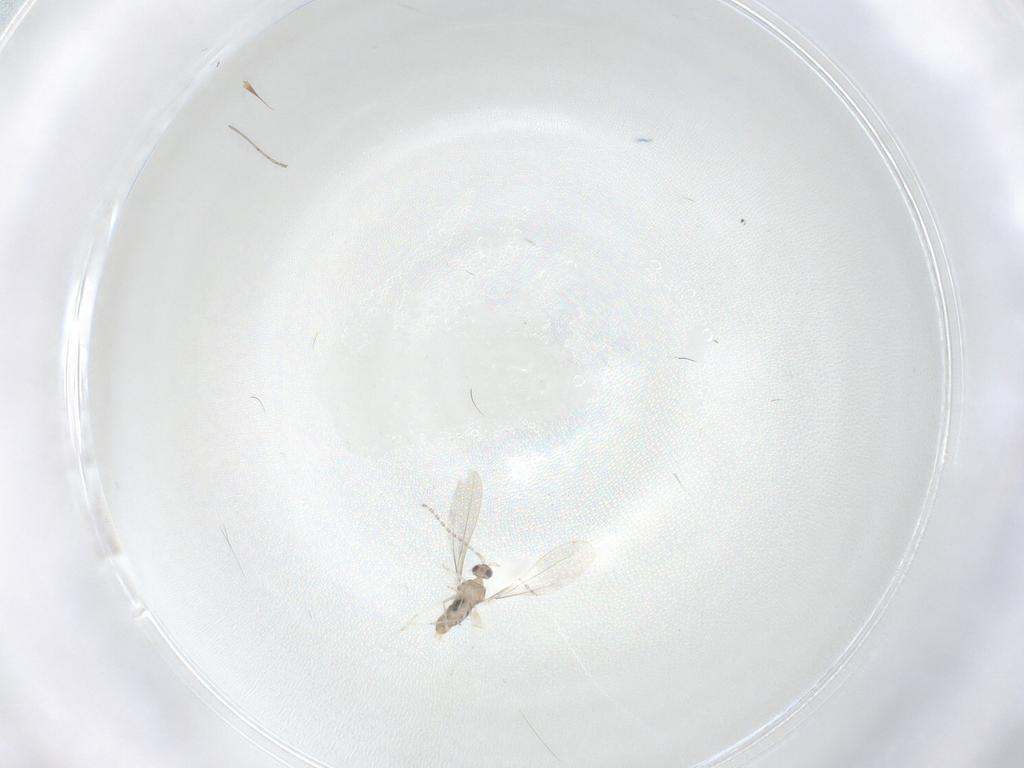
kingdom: Animalia
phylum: Arthropoda
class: Insecta
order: Diptera
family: Cecidomyiidae
